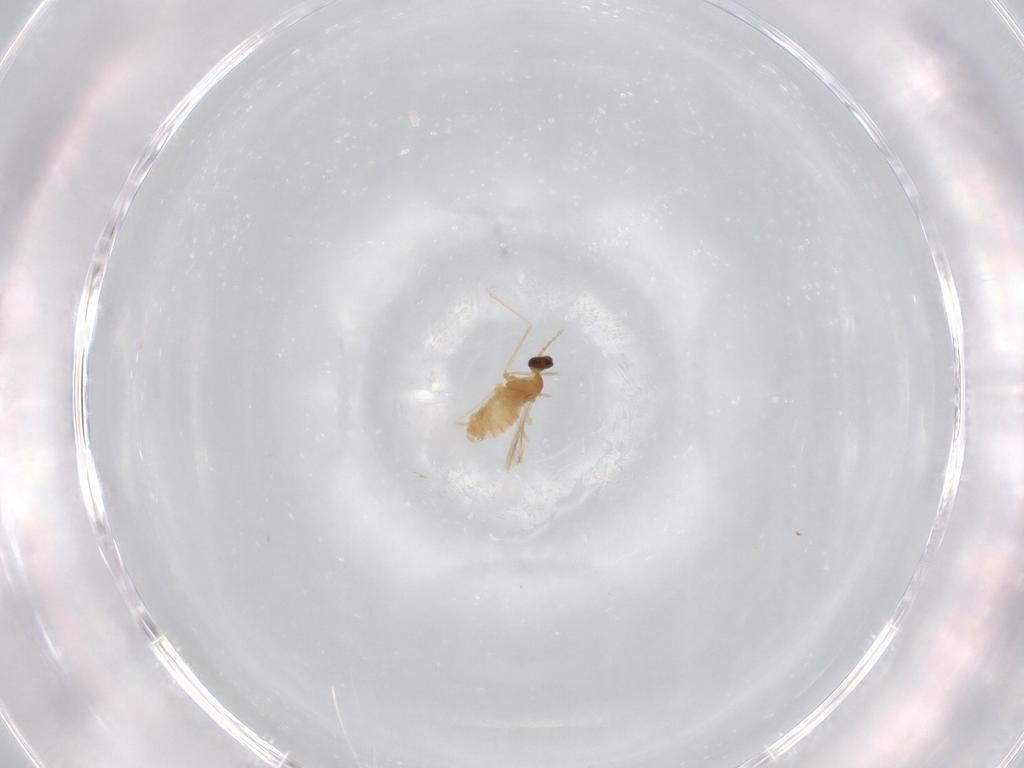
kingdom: Animalia
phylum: Arthropoda
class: Insecta
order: Diptera
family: Cecidomyiidae
